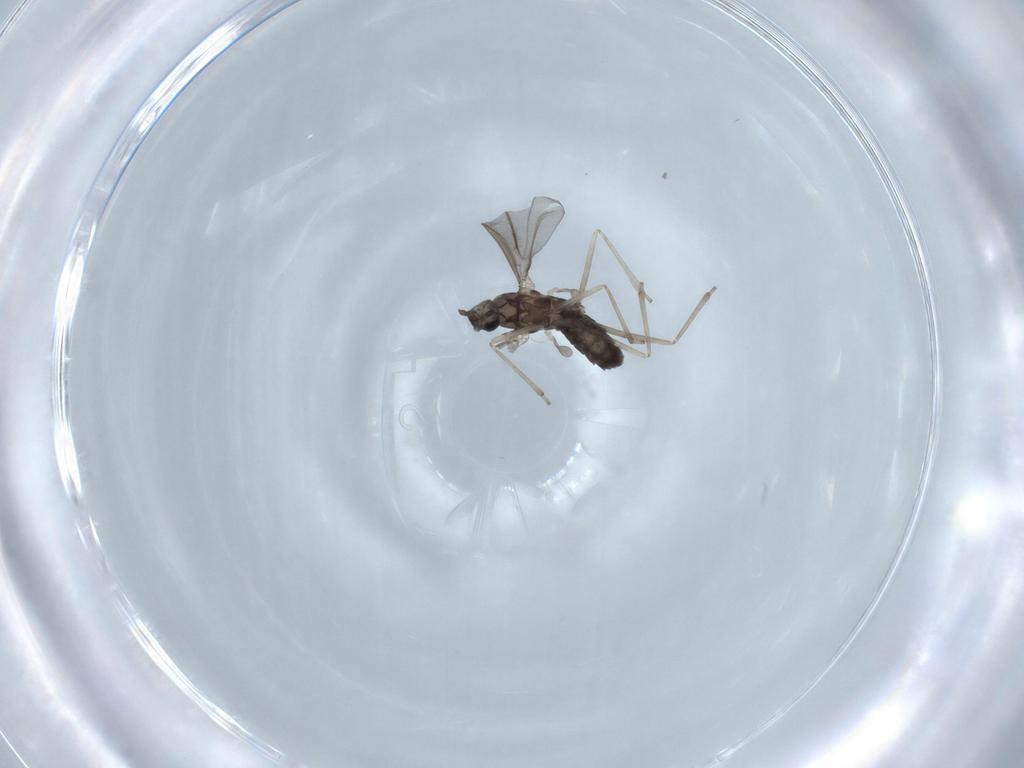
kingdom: Animalia
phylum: Arthropoda
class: Insecta
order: Diptera
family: Cecidomyiidae
